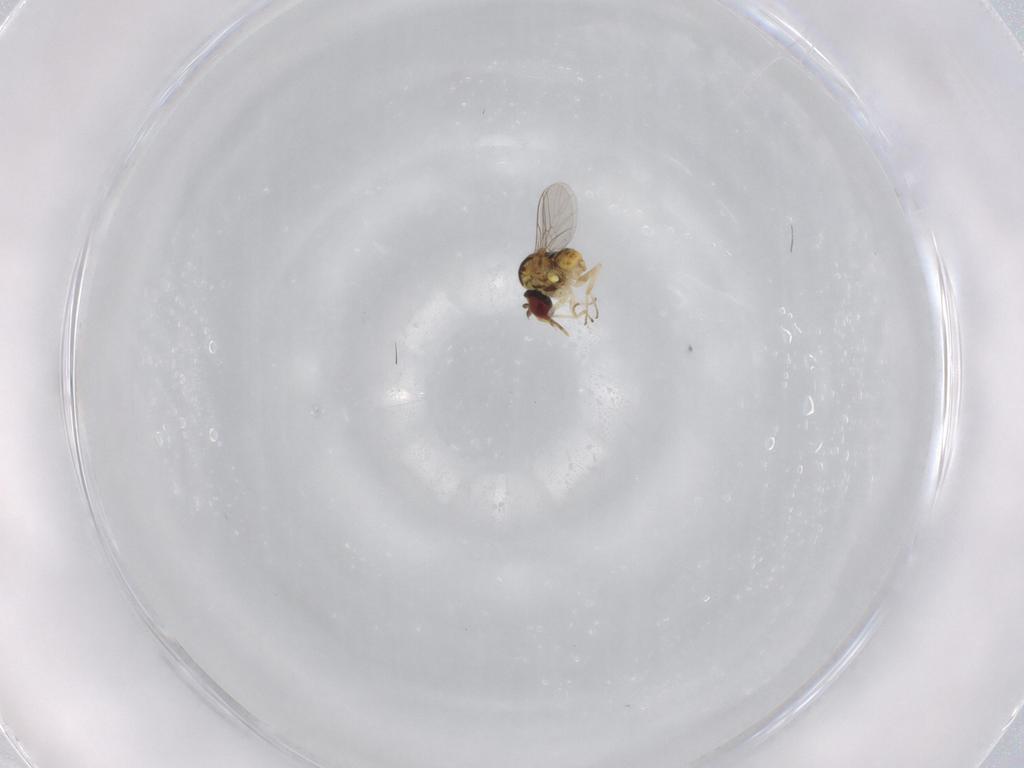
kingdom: Animalia
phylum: Arthropoda
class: Insecta
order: Diptera
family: Bombyliidae
